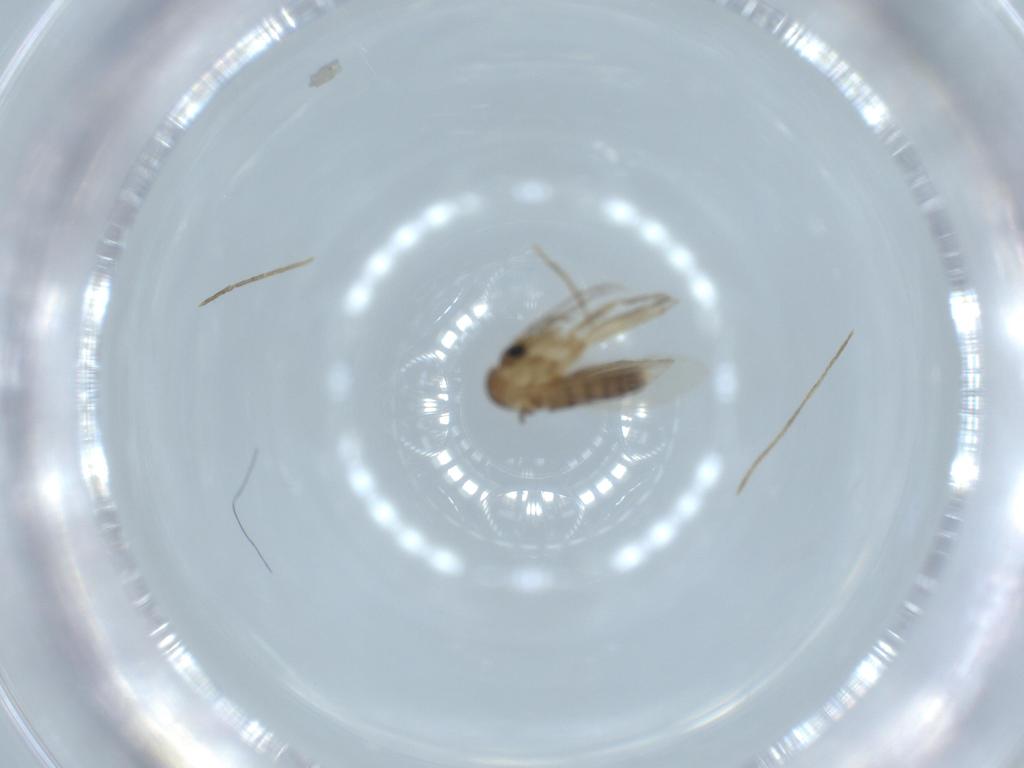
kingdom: Animalia
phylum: Arthropoda
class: Insecta
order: Diptera
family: Psychodidae
